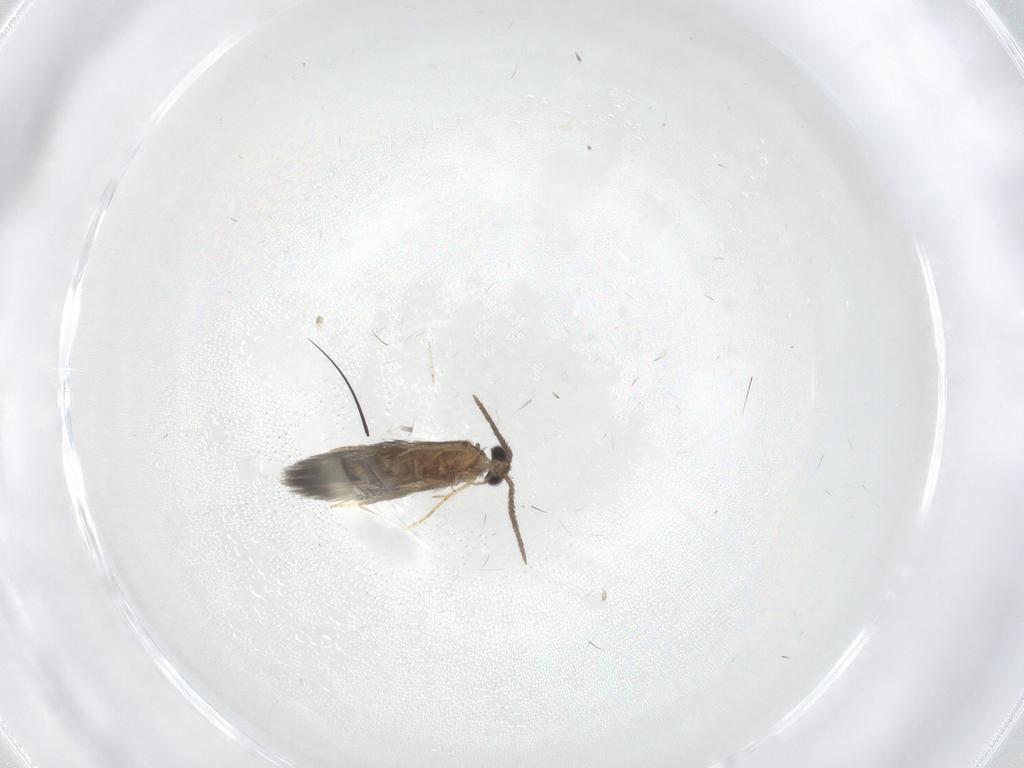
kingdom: Animalia
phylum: Arthropoda
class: Insecta
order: Trichoptera
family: Hydroptilidae
